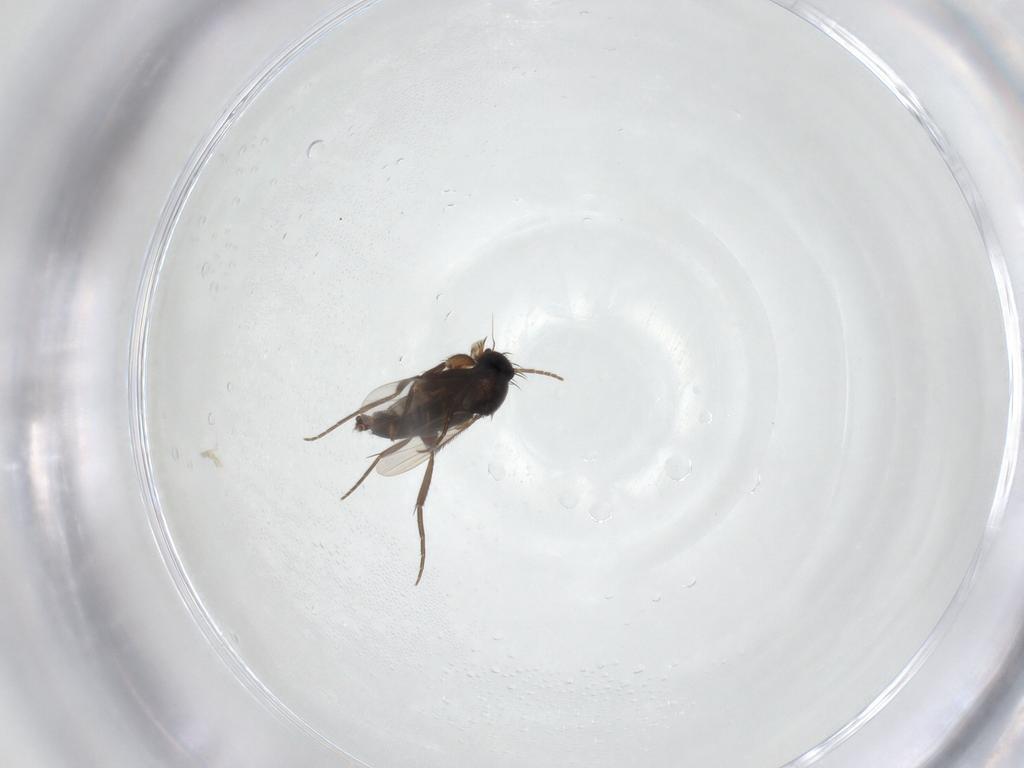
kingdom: Animalia
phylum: Arthropoda
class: Insecta
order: Diptera
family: Phoridae
